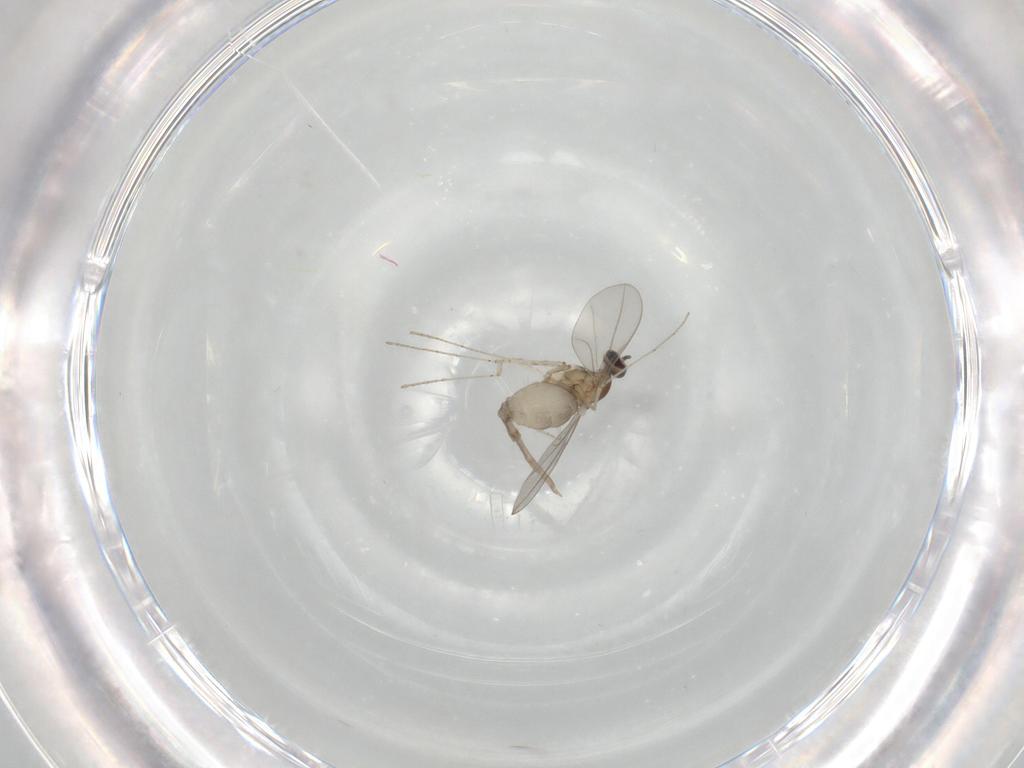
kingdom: Animalia
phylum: Arthropoda
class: Insecta
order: Diptera
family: Cecidomyiidae
